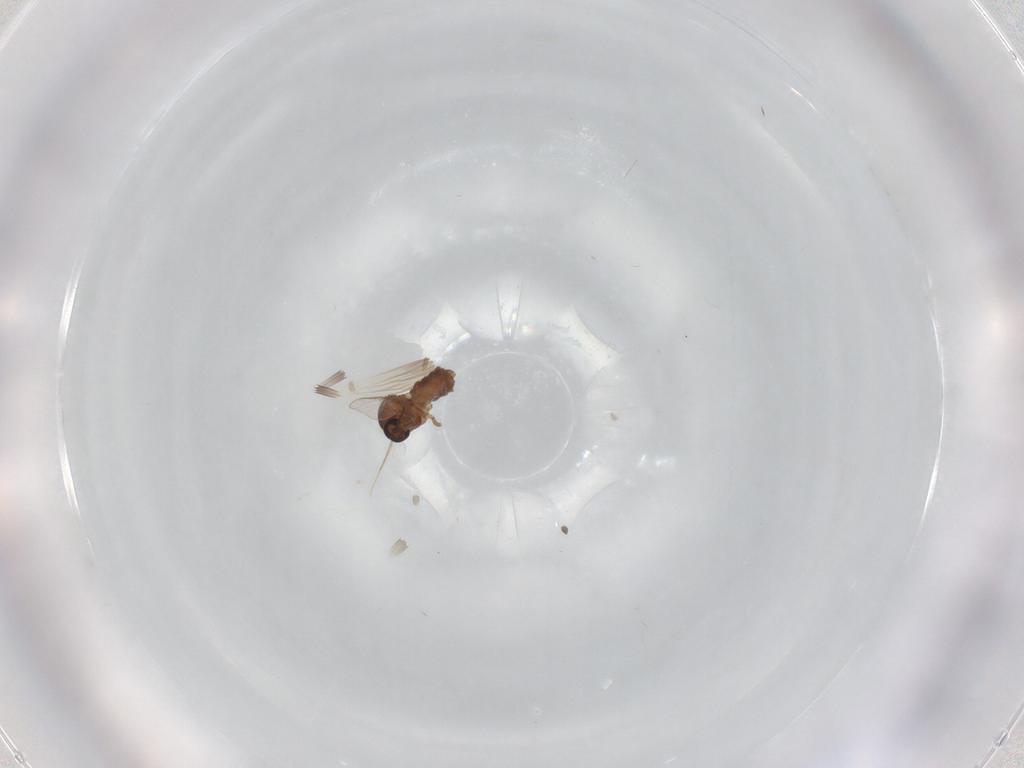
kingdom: Animalia
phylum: Arthropoda
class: Insecta
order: Diptera
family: Ceratopogonidae
